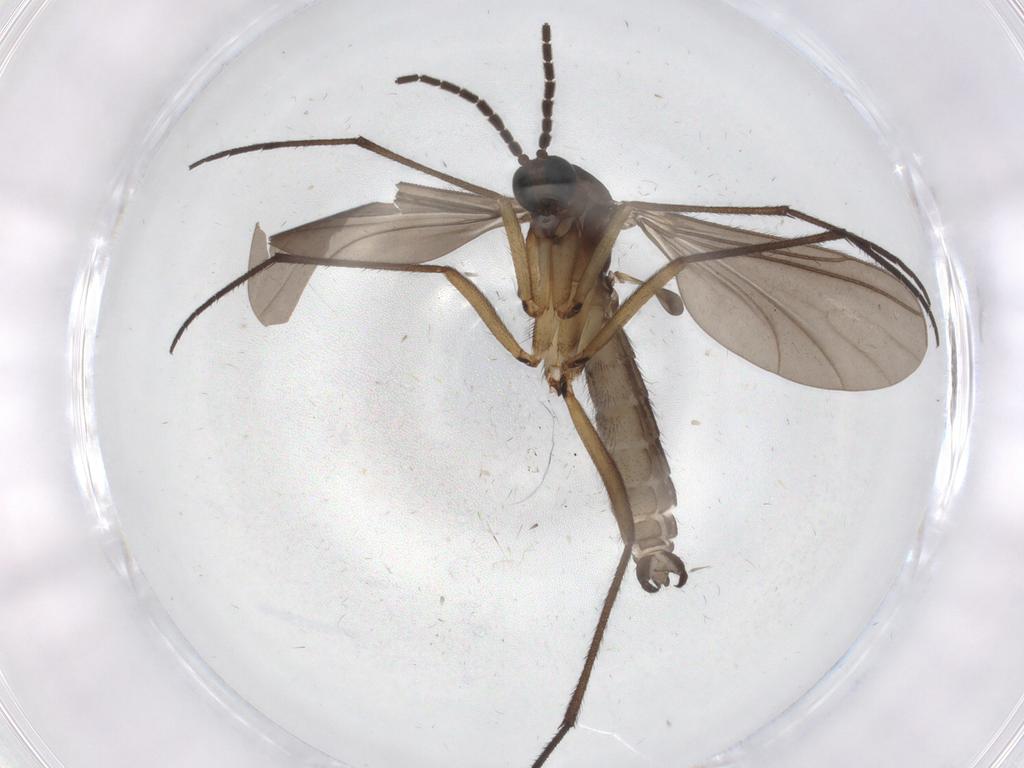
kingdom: Animalia
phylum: Arthropoda
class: Insecta
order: Diptera
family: Sciaridae
